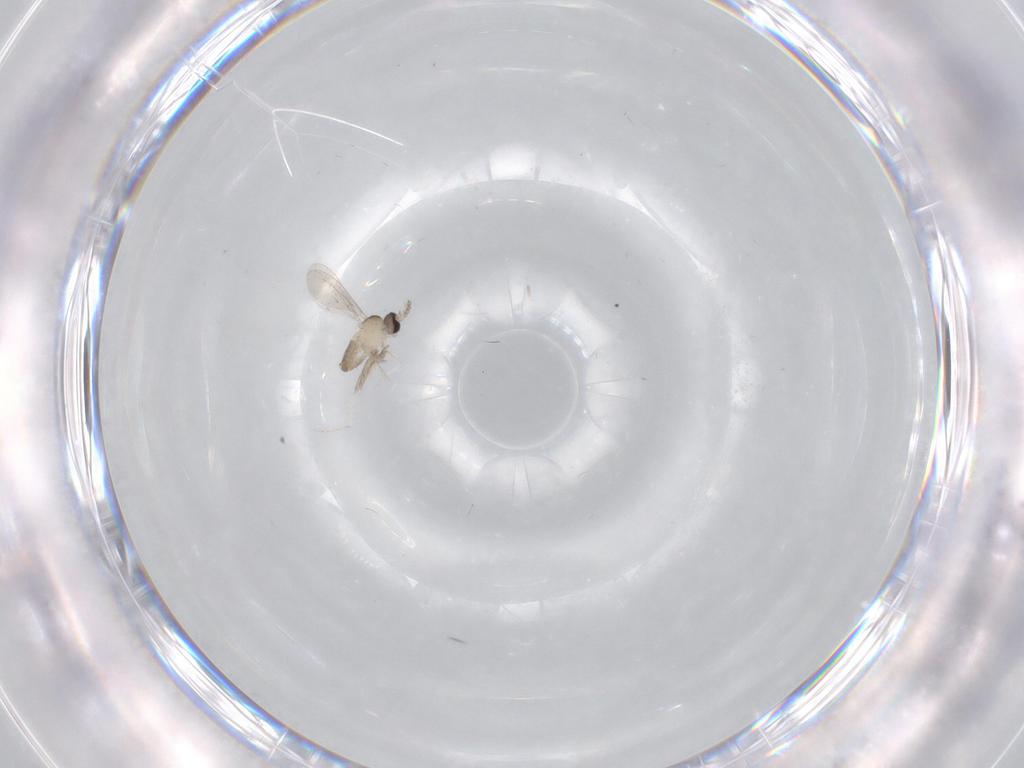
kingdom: Animalia
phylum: Arthropoda
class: Insecta
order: Diptera
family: Cecidomyiidae
